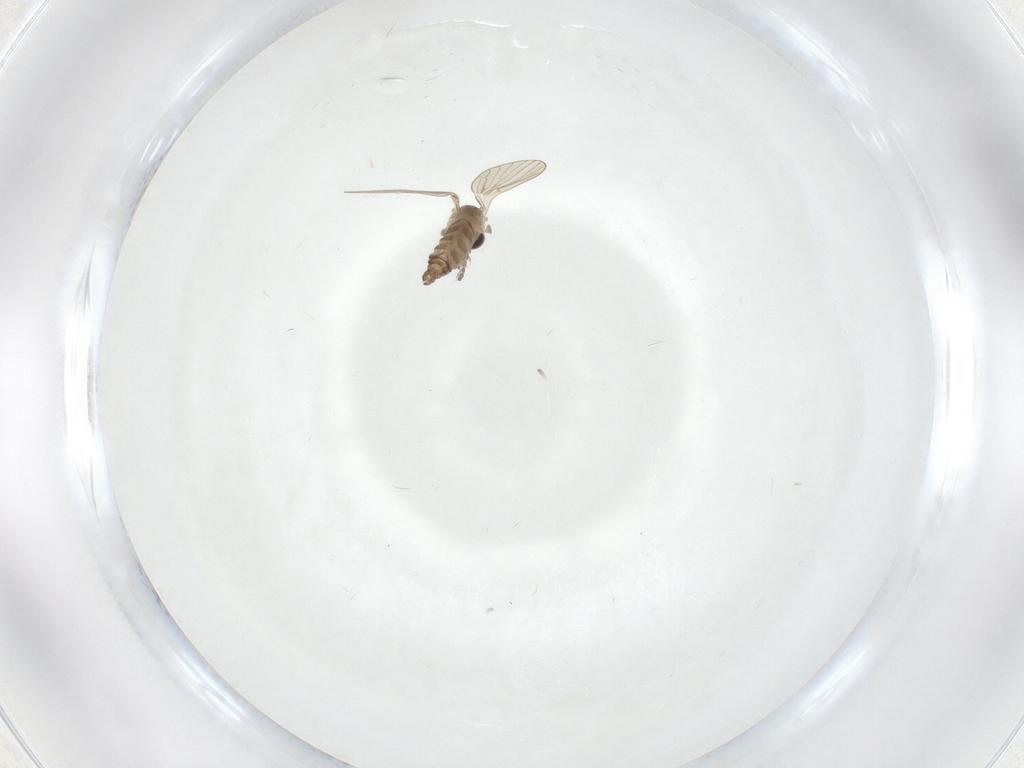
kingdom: Animalia
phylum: Arthropoda
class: Insecta
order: Diptera
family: Psychodidae
